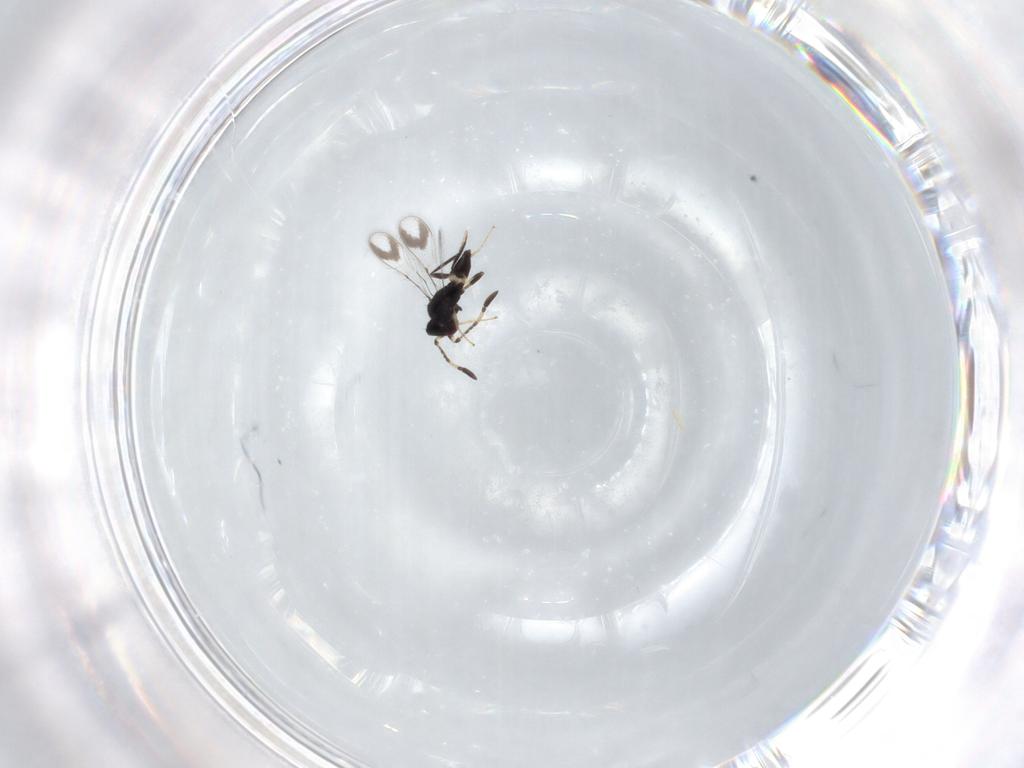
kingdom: Animalia
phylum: Arthropoda
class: Insecta
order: Hymenoptera
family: Mymaridae
